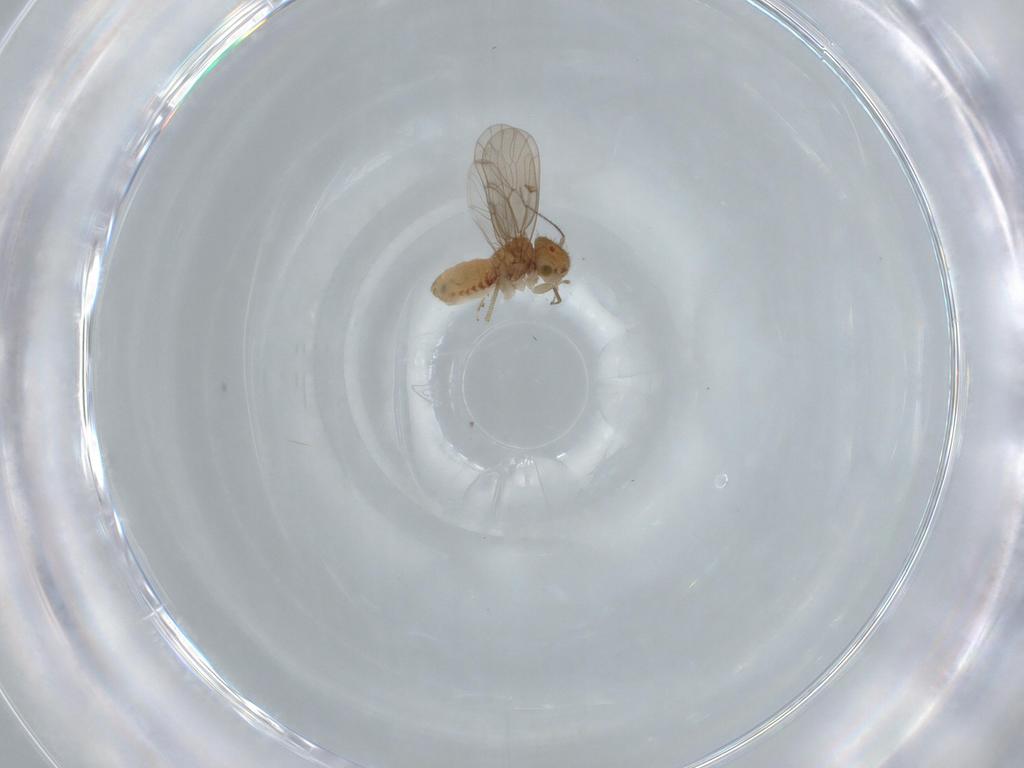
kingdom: Animalia
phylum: Arthropoda
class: Insecta
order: Psocodea
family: Ectopsocidae
